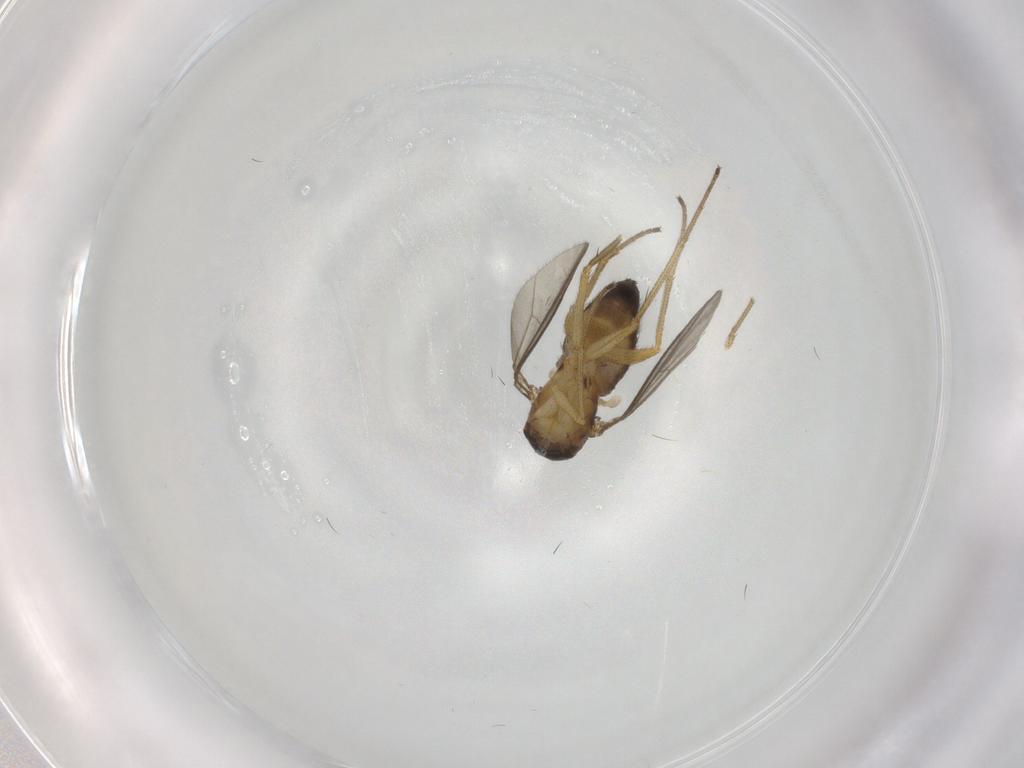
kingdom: Animalia
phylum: Arthropoda
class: Insecta
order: Diptera
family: Dolichopodidae
